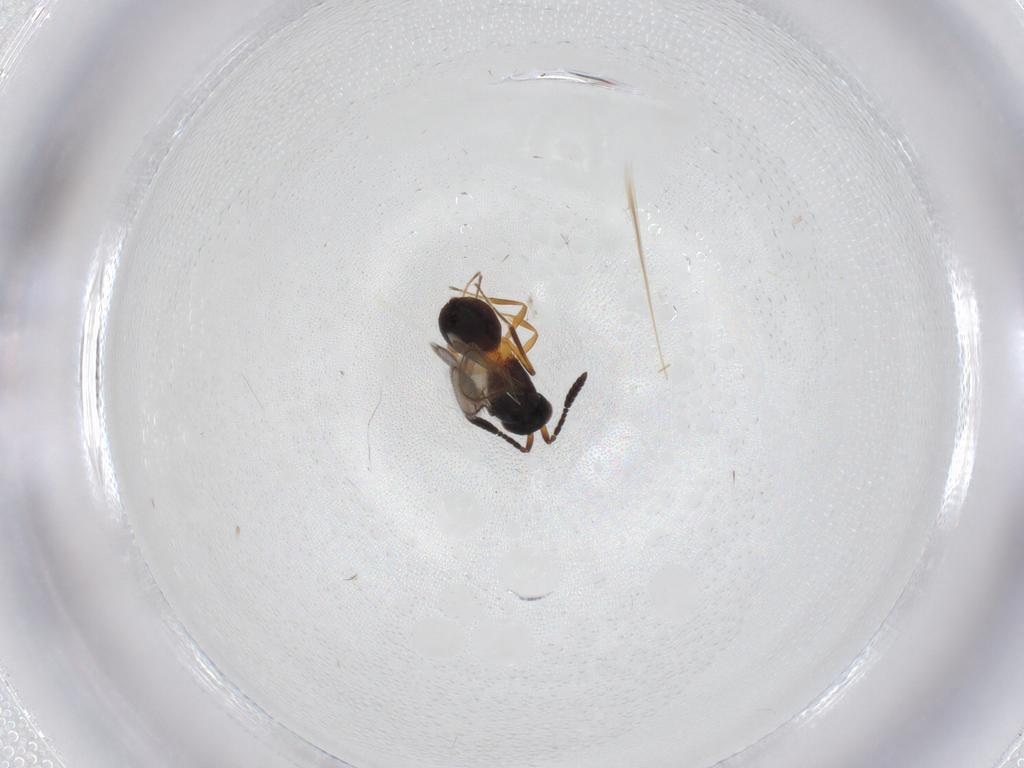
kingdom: Animalia
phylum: Arthropoda
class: Insecta
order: Hymenoptera
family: Scelionidae
